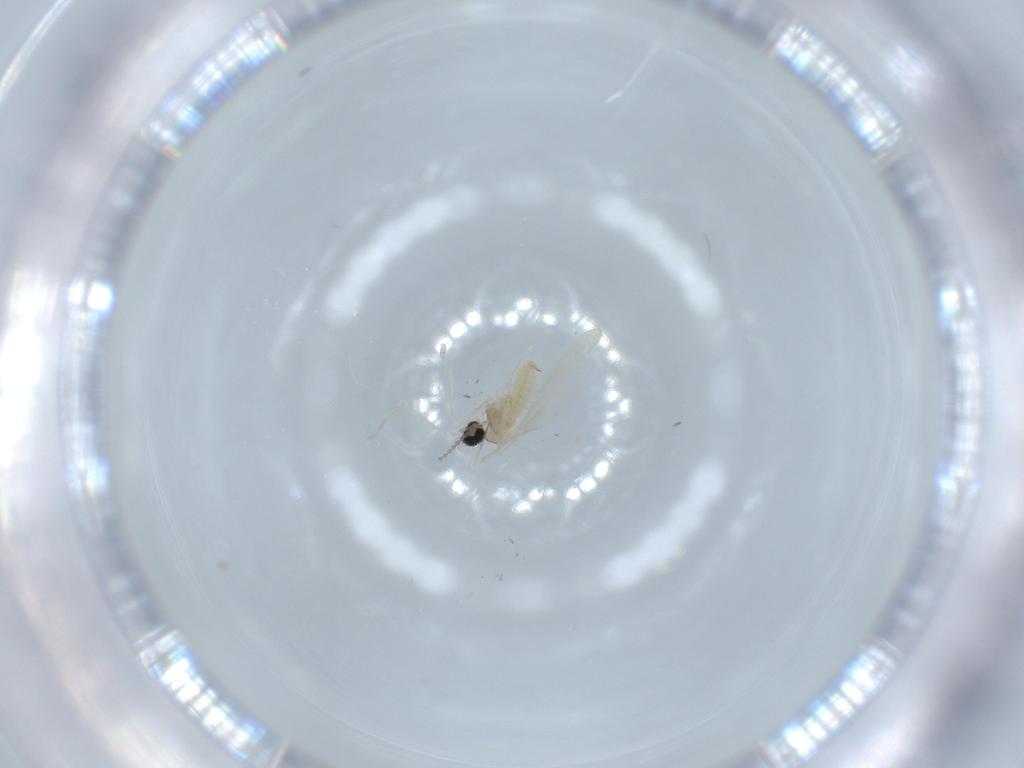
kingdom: Animalia
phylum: Arthropoda
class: Insecta
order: Diptera
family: Cecidomyiidae
